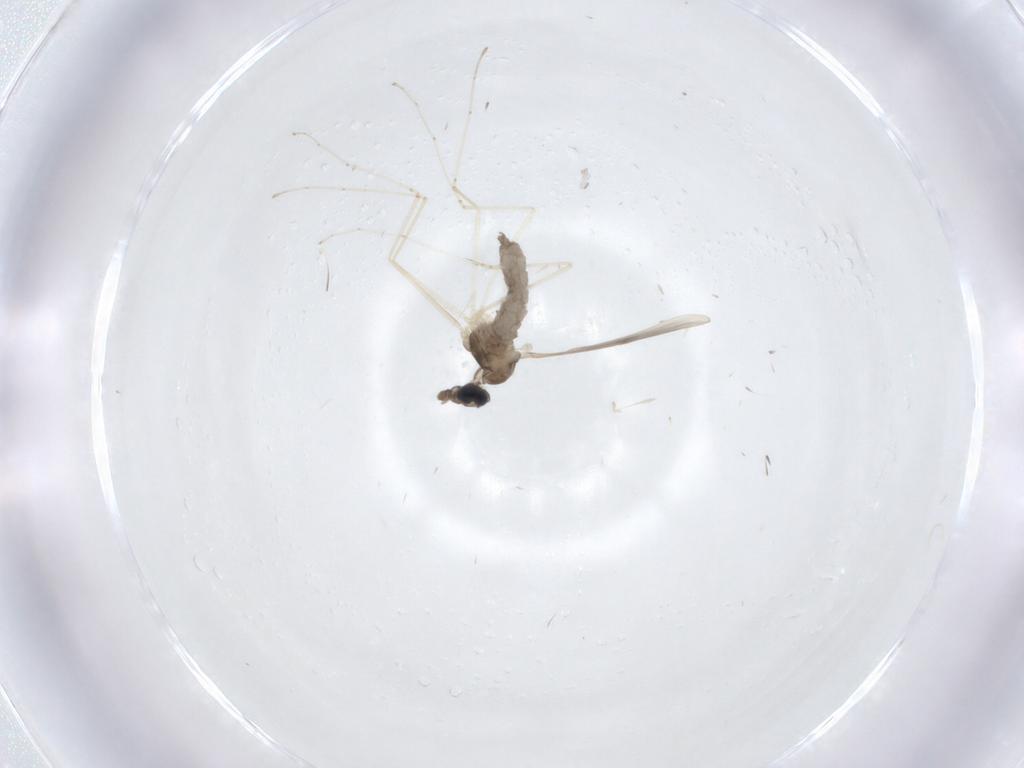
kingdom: Animalia
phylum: Arthropoda
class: Insecta
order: Diptera
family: Cecidomyiidae
